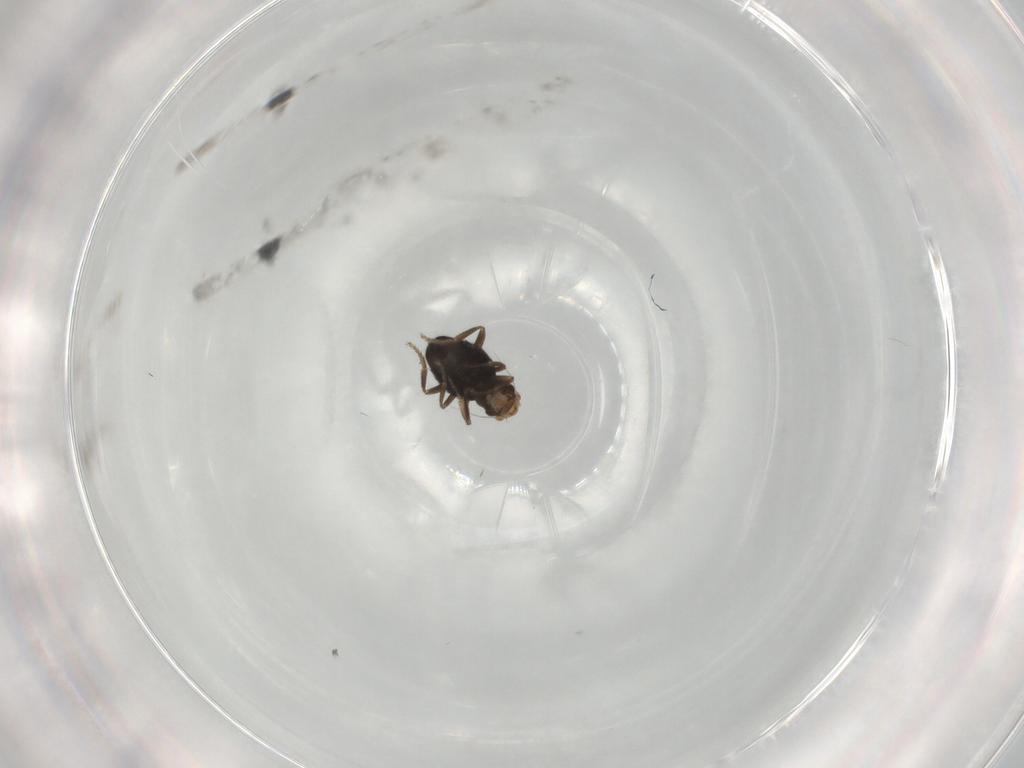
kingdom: Animalia
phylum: Arthropoda
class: Insecta
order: Diptera
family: Phoridae
